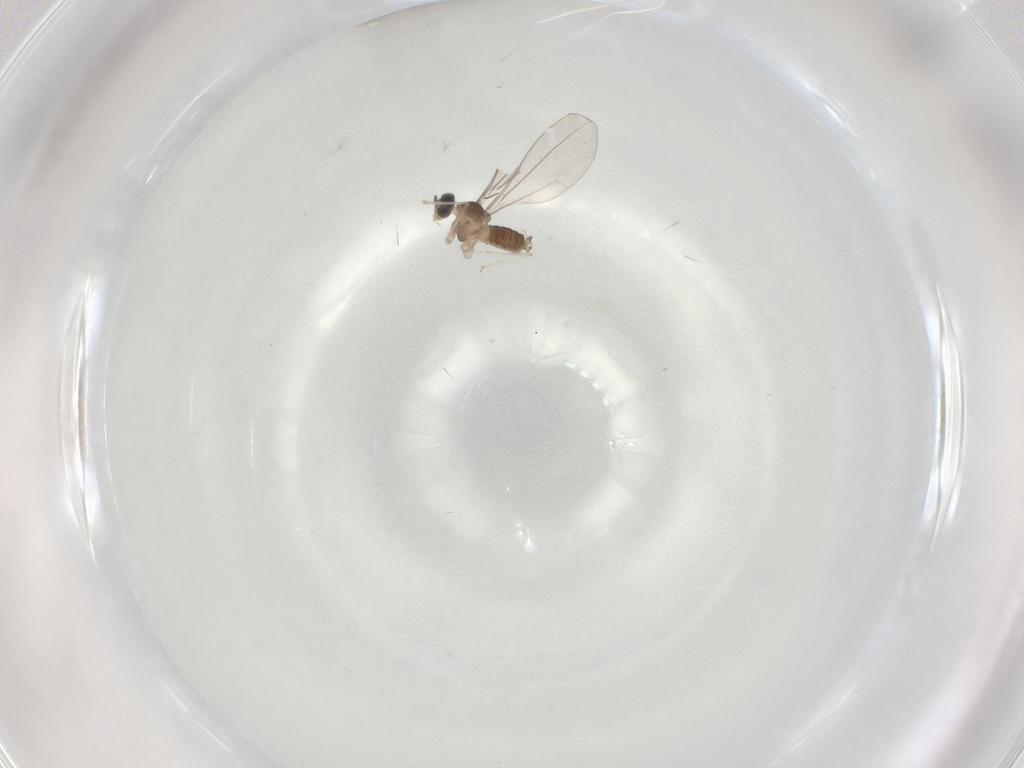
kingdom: Animalia
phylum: Arthropoda
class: Insecta
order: Diptera
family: Cecidomyiidae
